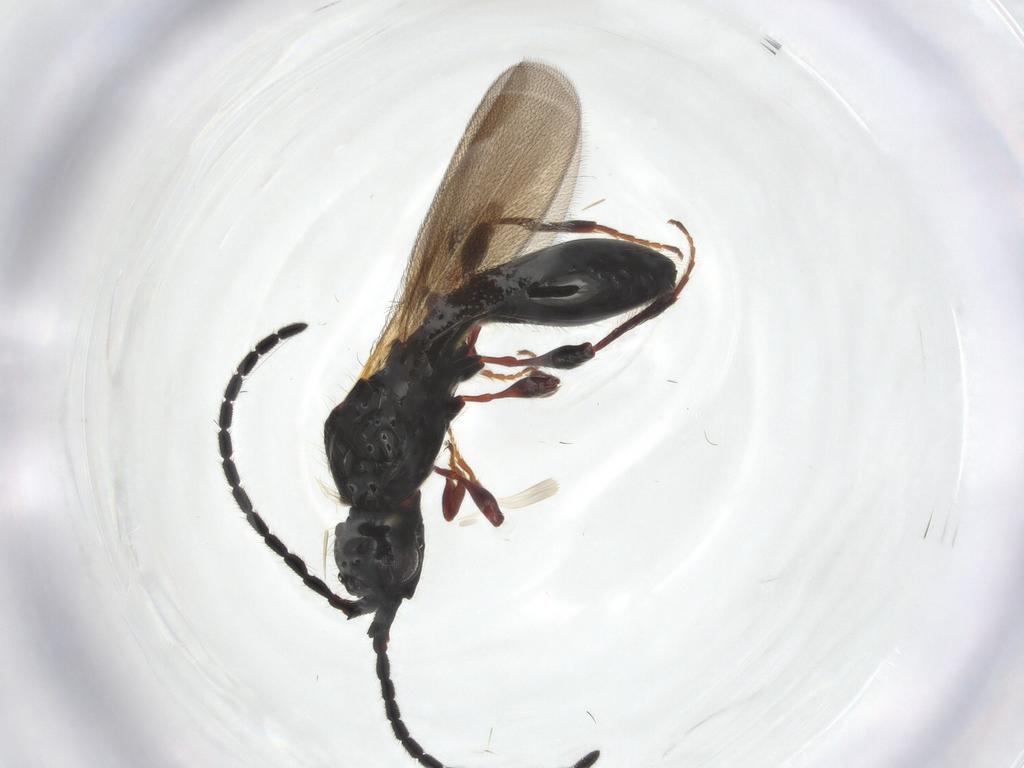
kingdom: Animalia
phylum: Arthropoda
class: Insecta
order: Hymenoptera
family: Diapriidae
